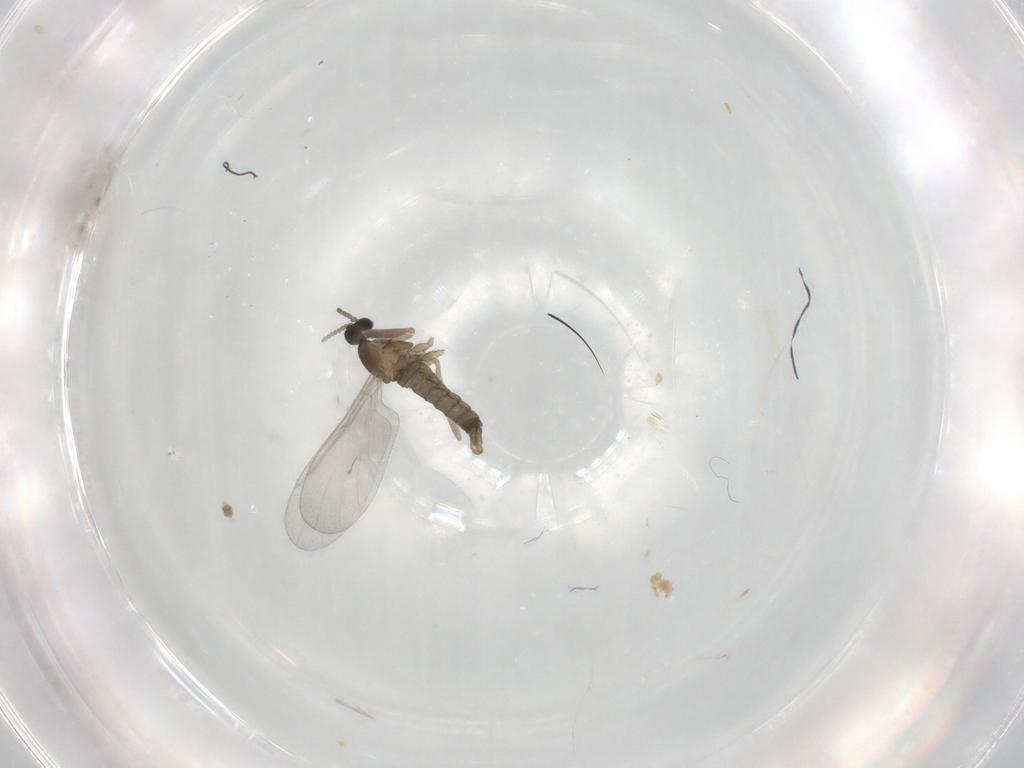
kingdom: Animalia
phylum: Arthropoda
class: Insecta
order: Diptera
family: Cecidomyiidae
